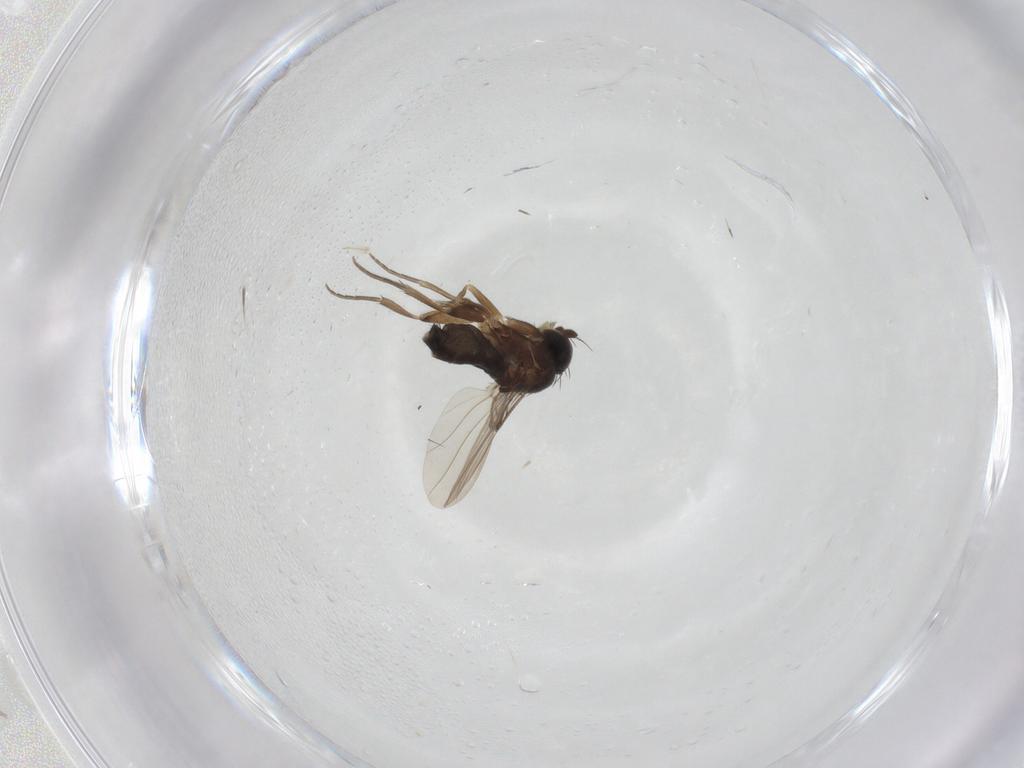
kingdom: Animalia
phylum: Arthropoda
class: Insecta
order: Diptera
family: Phoridae
